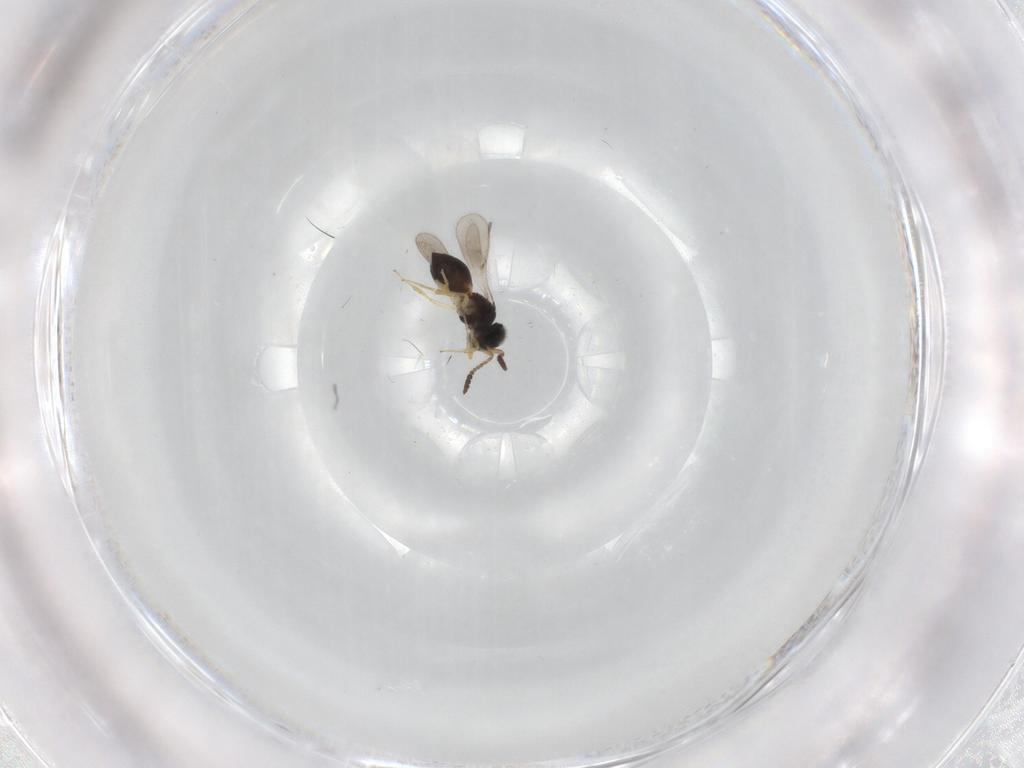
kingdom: Animalia
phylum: Arthropoda
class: Insecta
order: Hymenoptera
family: Scelionidae
